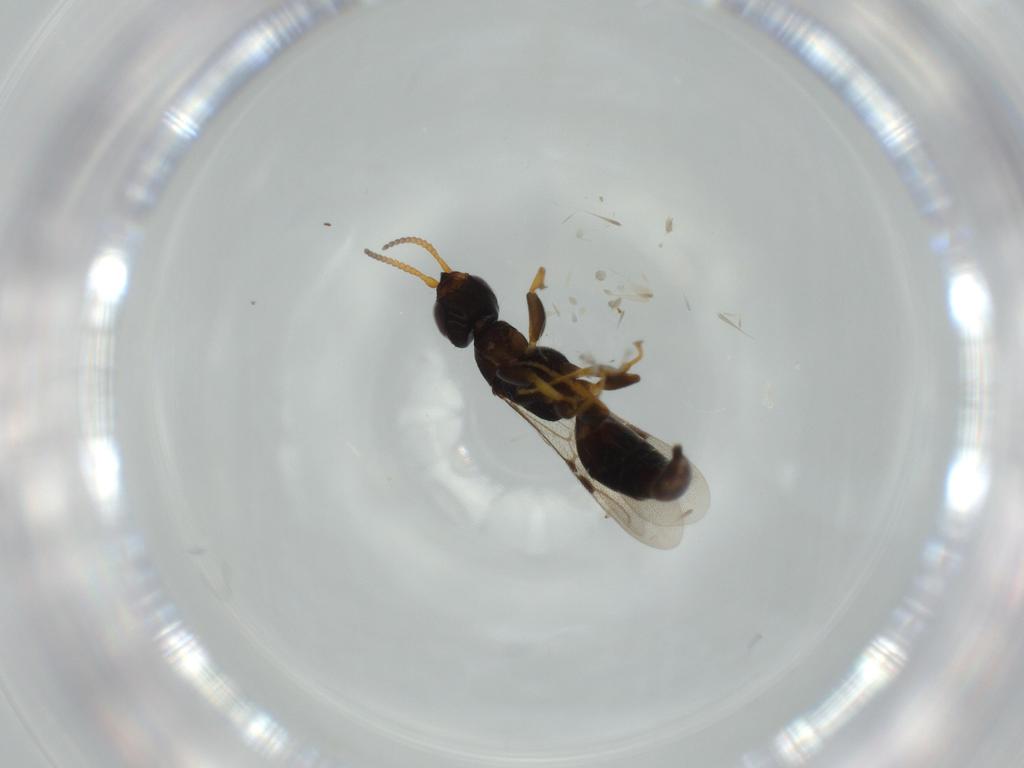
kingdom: Animalia
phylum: Arthropoda
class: Insecta
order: Hymenoptera
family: Bethylidae
